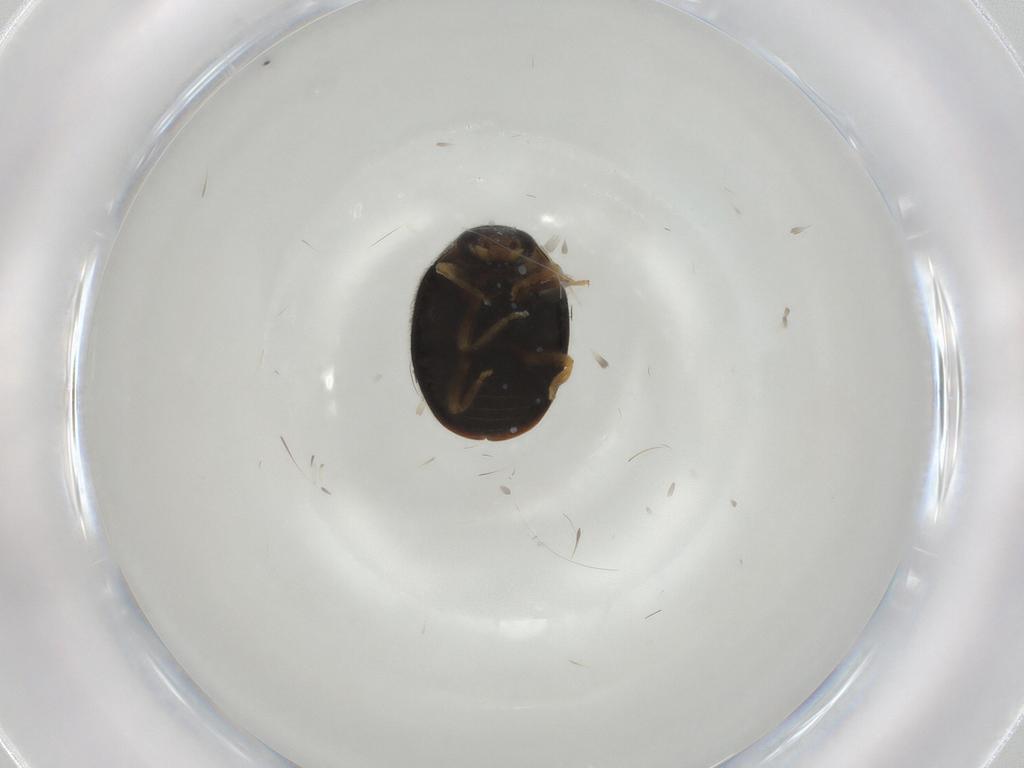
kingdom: Animalia
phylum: Arthropoda
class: Insecta
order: Coleoptera
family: Coccinellidae
